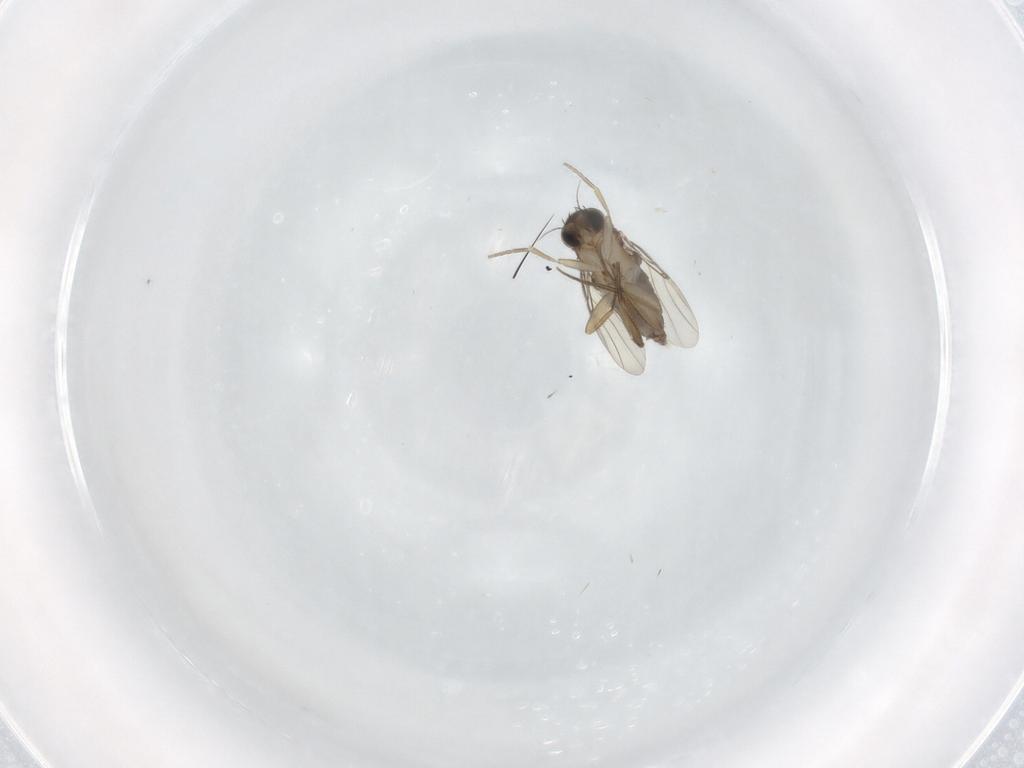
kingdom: Animalia
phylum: Arthropoda
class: Insecta
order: Diptera
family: Phoridae
